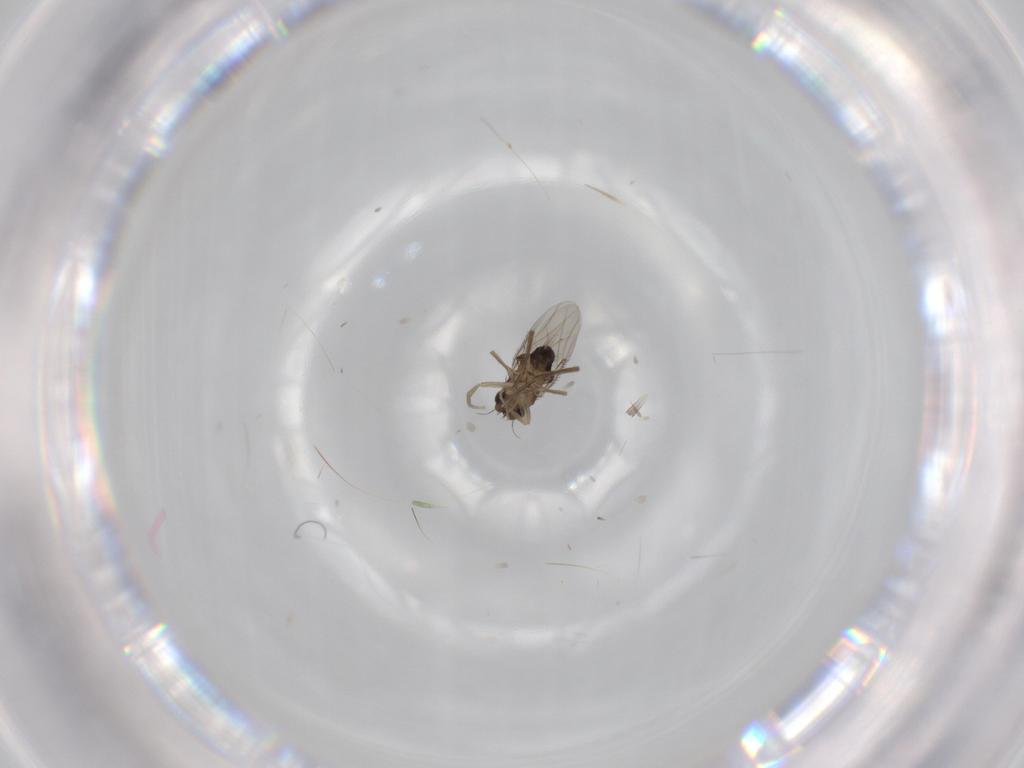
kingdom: Animalia
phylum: Arthropoda
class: Insecta
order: Diptera
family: Phoridae
